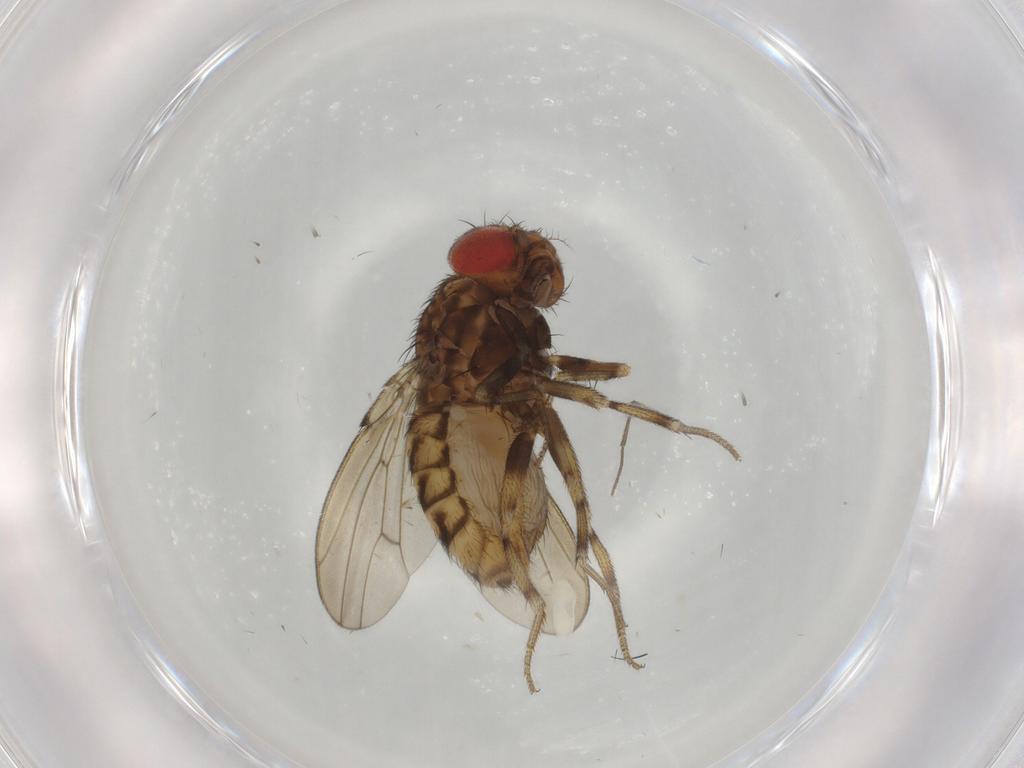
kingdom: Animalia
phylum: Arthropoda
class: Insecta
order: Diptera
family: Drosophilidae
